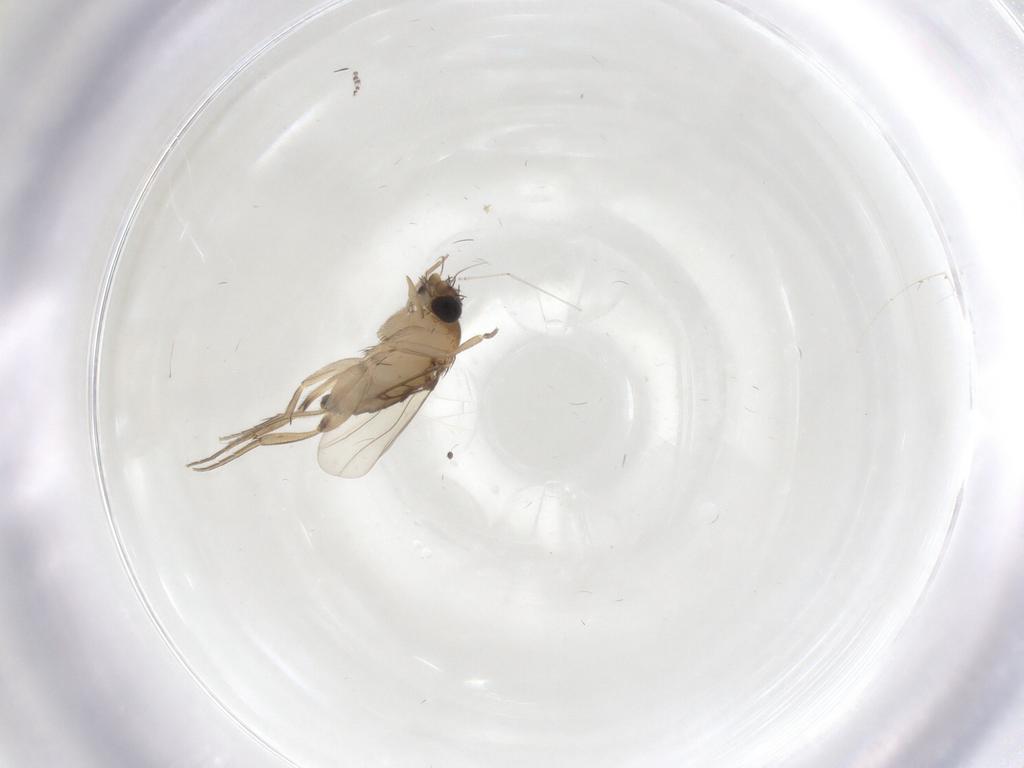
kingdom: Animalia
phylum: Arthropoda
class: Insecta
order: Diptera
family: Phoridae
